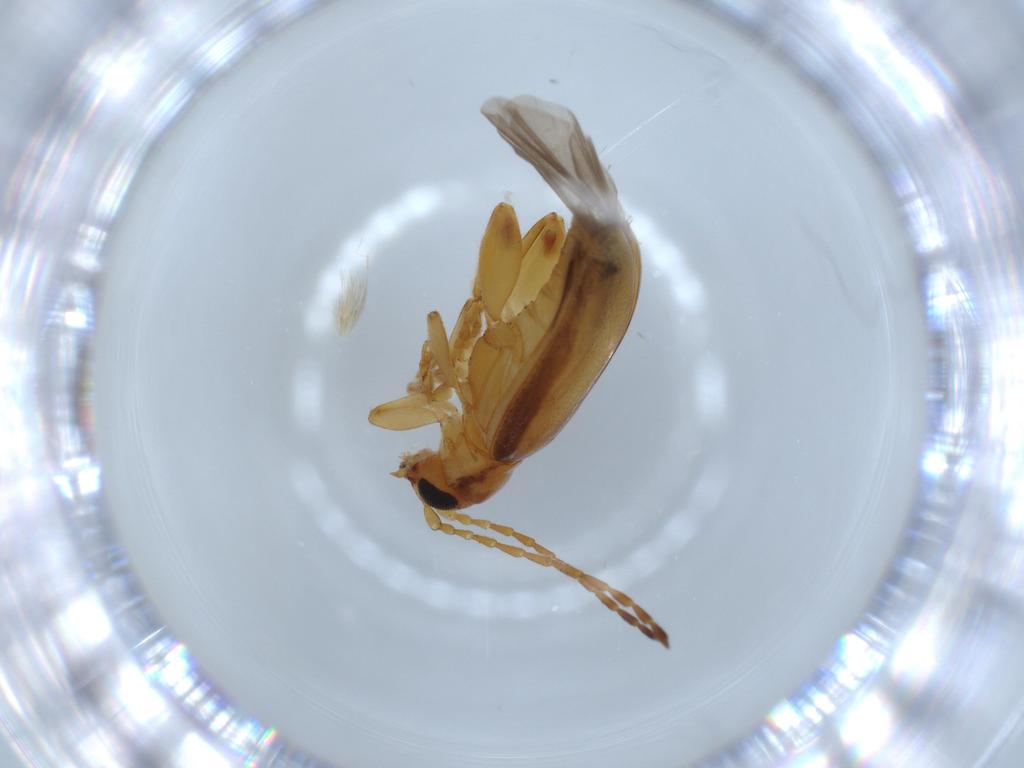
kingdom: Animalia
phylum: Arthropoda
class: Insecta
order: Coleoptera
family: Chrysomelidae
